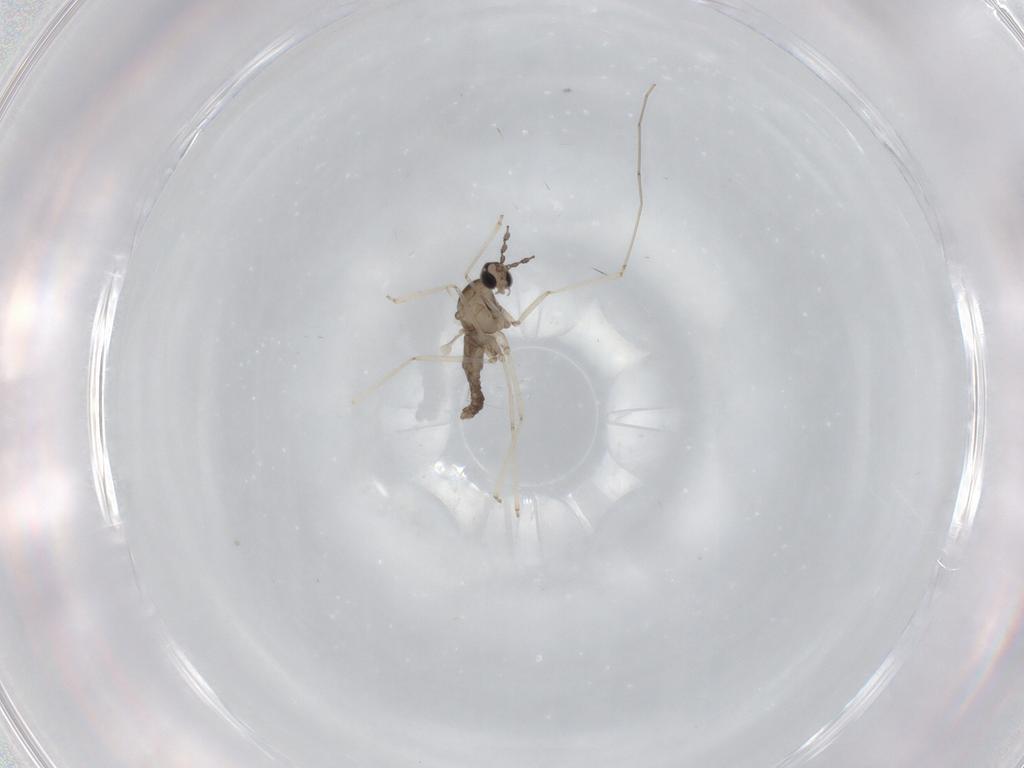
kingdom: Animalia
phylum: Arthropoda
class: Insecta
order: Diptera
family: Cecidomyiidae
